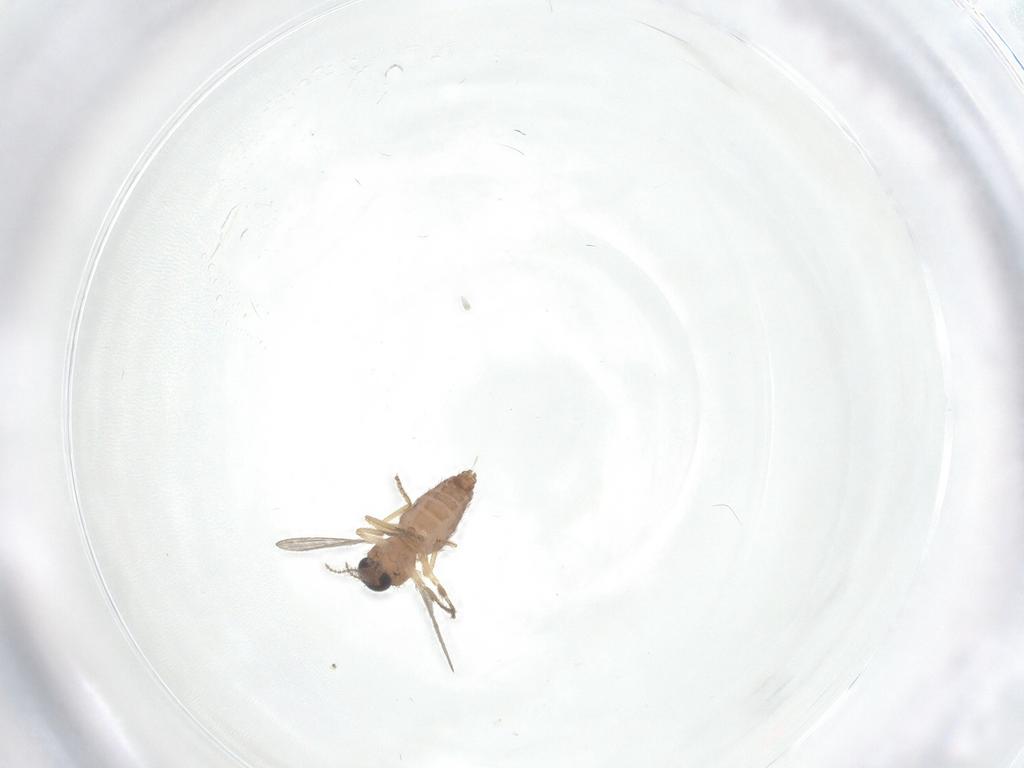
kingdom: Animalia
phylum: Arthropoda
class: Insecta
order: Diptera
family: Ceratopogonidae
